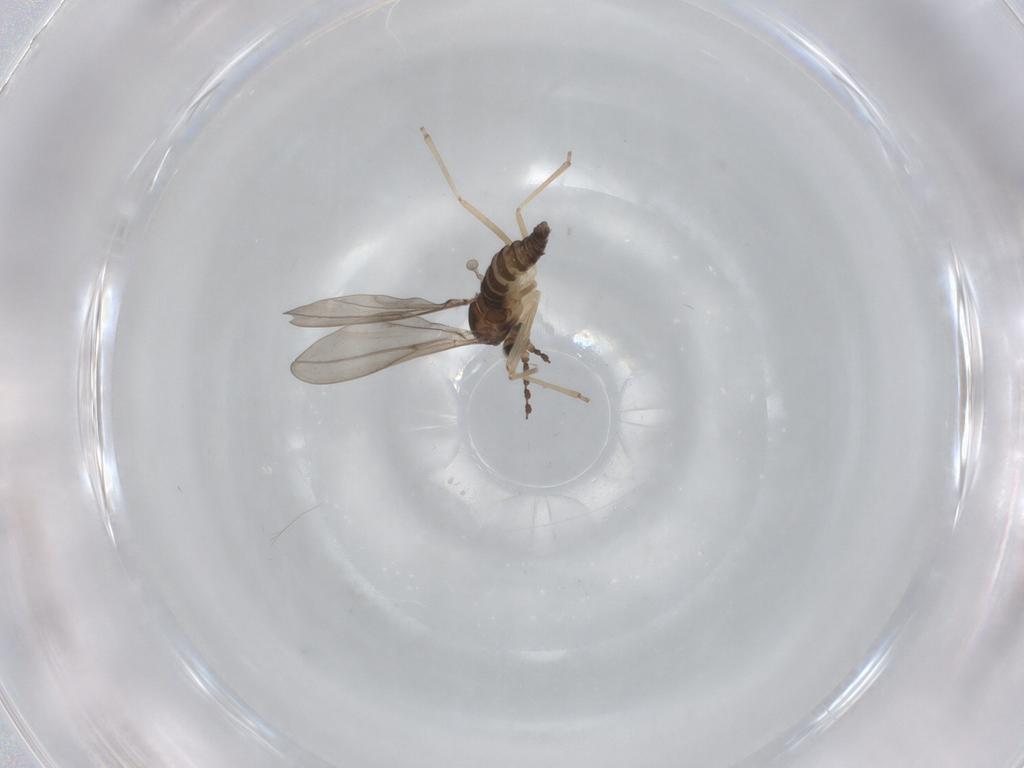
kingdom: Animalia
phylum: Arthropoda
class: Insecta
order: Diptera
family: Cecidomyiidae
